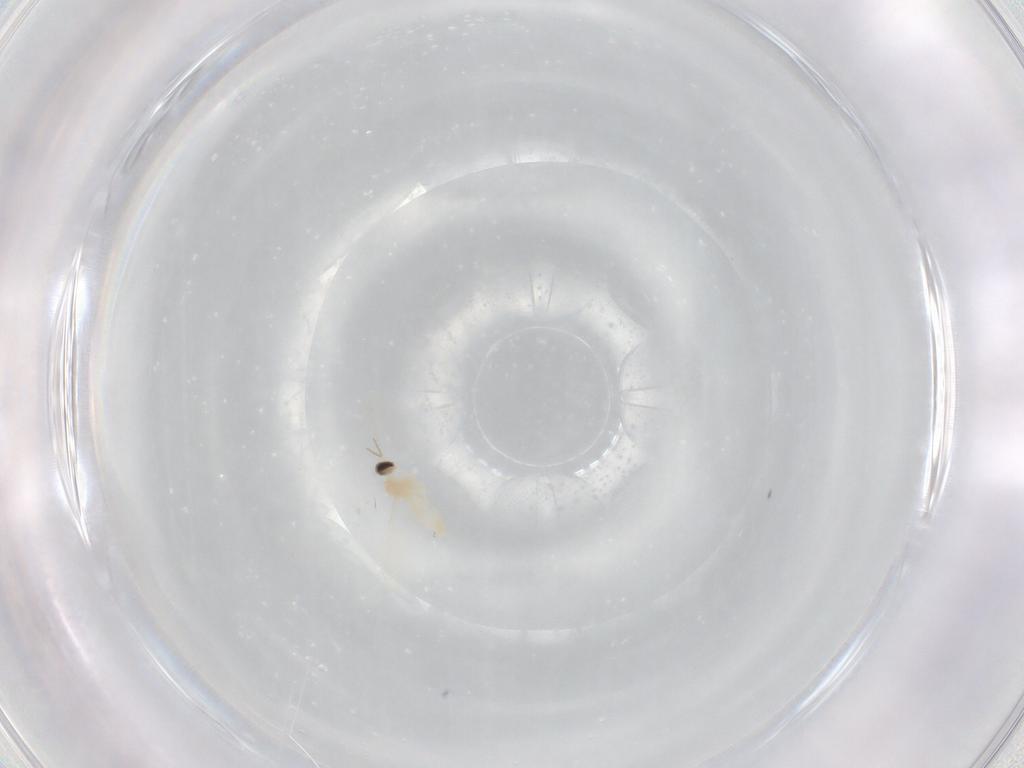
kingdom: Animalia
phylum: Arthropoda
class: Insecta
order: Diptera
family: Cecidomyiidae
